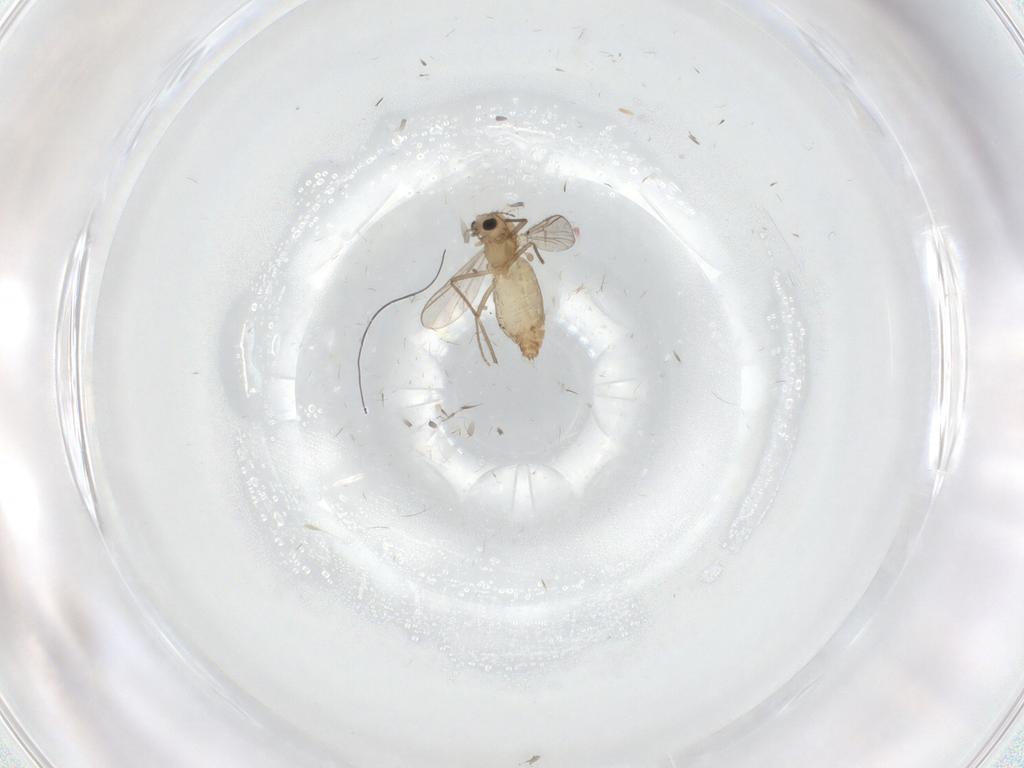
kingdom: Animalia
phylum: Arthropoda
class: Insecta
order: Diptera
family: Chironomidae
